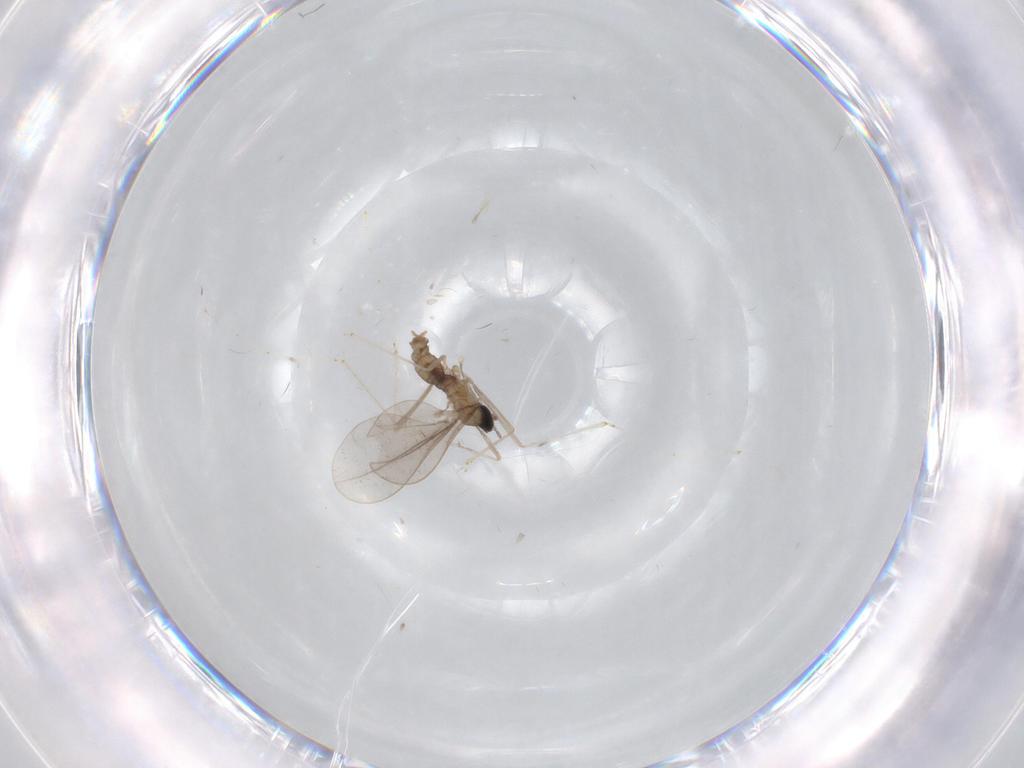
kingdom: Animalia
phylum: Arthropoda
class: Insecta
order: Diptera
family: Cecidomyiidae
